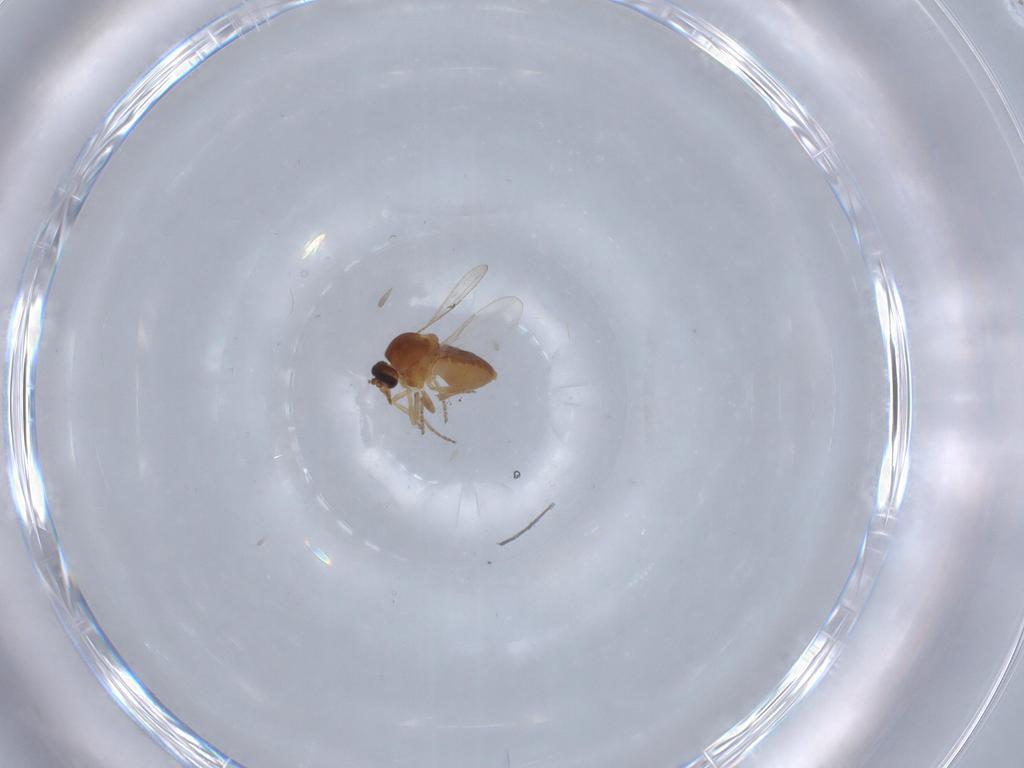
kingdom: Animalia
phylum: Arthropoda
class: Insecta
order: Diptera
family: Ceratopogonidae
